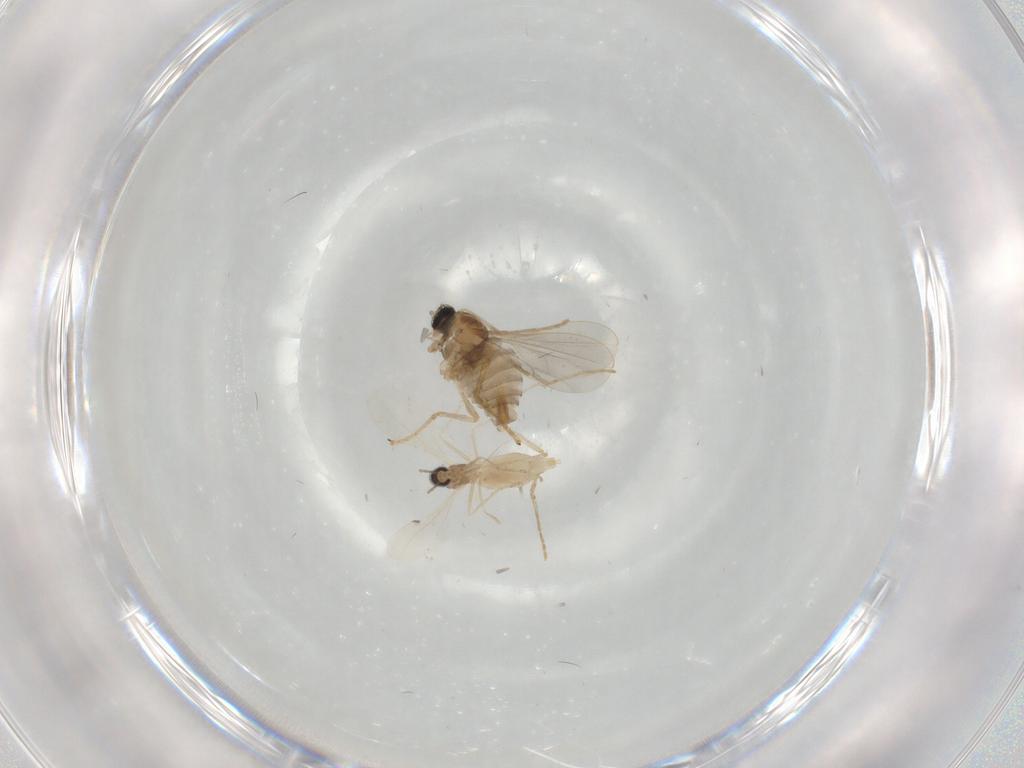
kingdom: Animalia
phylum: Arthropoda
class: Insecta
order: Diptera
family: Cecidomyiidae
